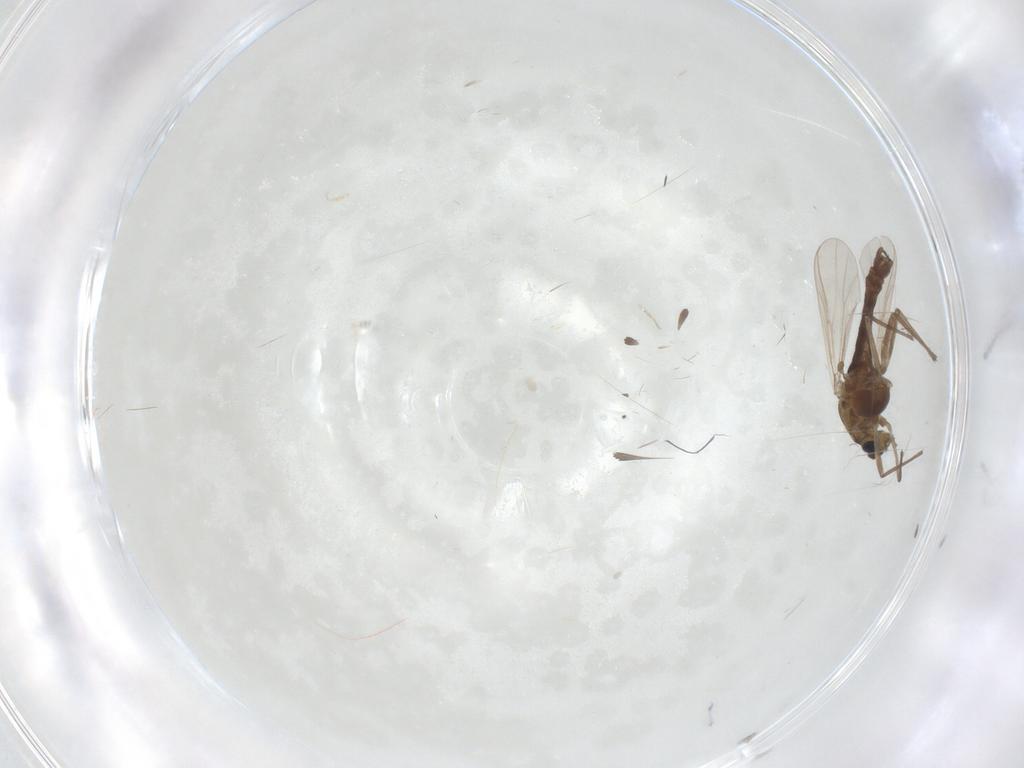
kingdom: Animalia
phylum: Arthropoda
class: Insecta
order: Diptera
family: Chironomidae
